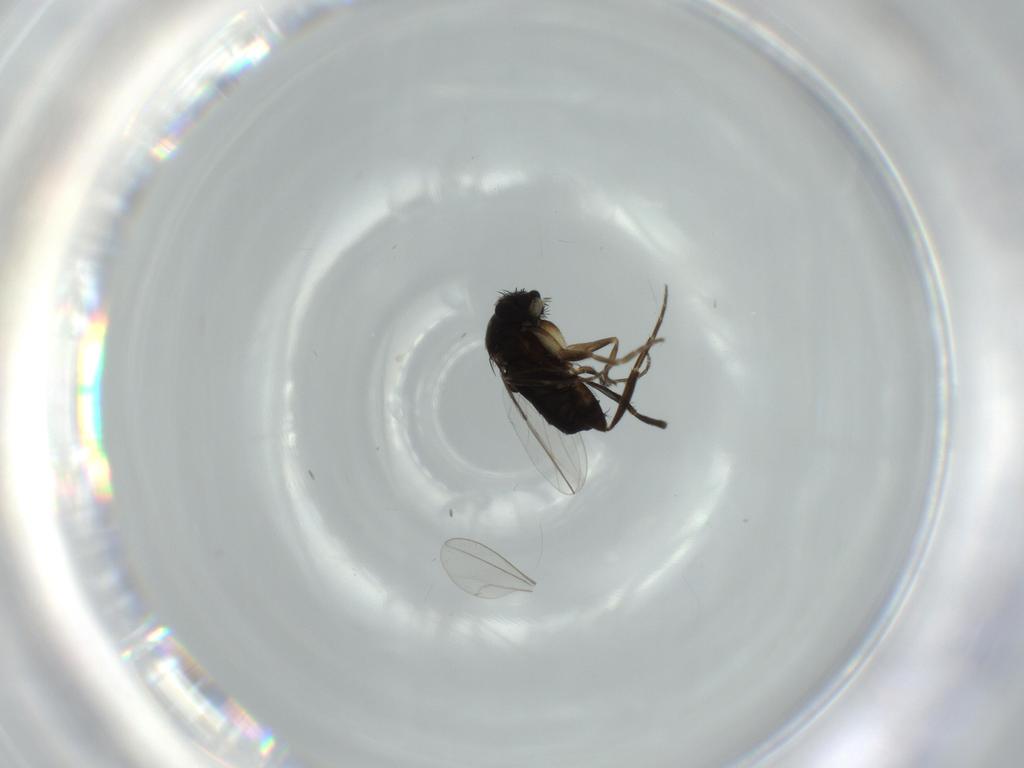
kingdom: Animalia
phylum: Arthropoda
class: Insecta
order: Diptera
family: Phoridae
